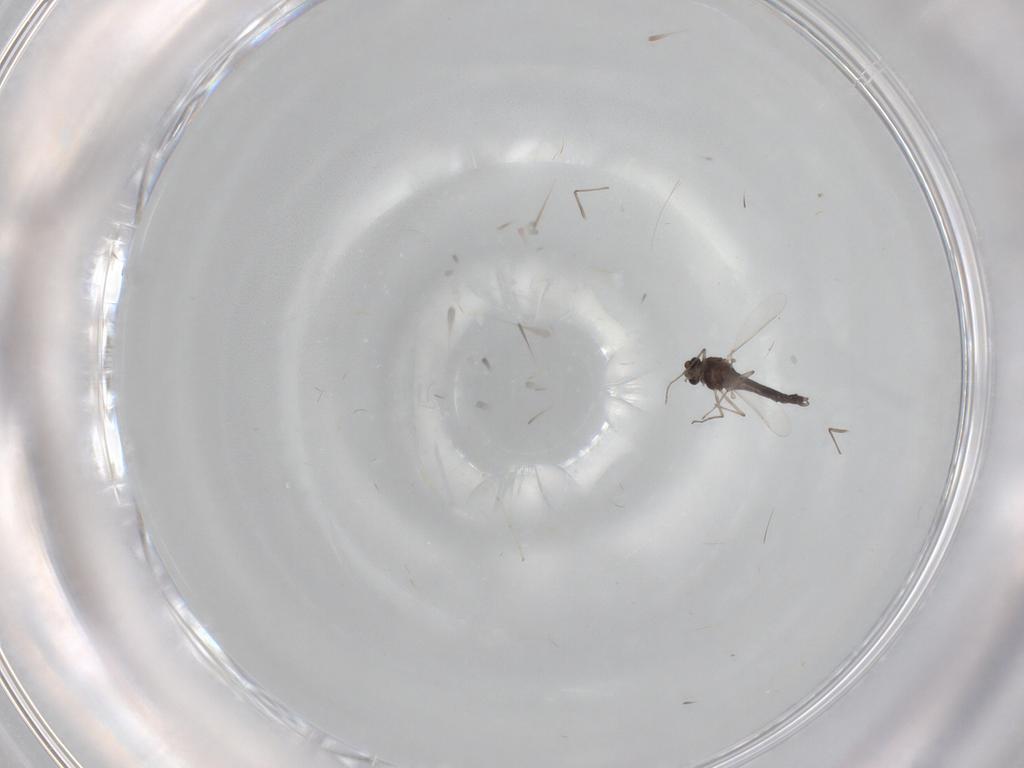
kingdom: Animalia
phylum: Arthropoda
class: Insecta
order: Diptera
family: Chironomidae
